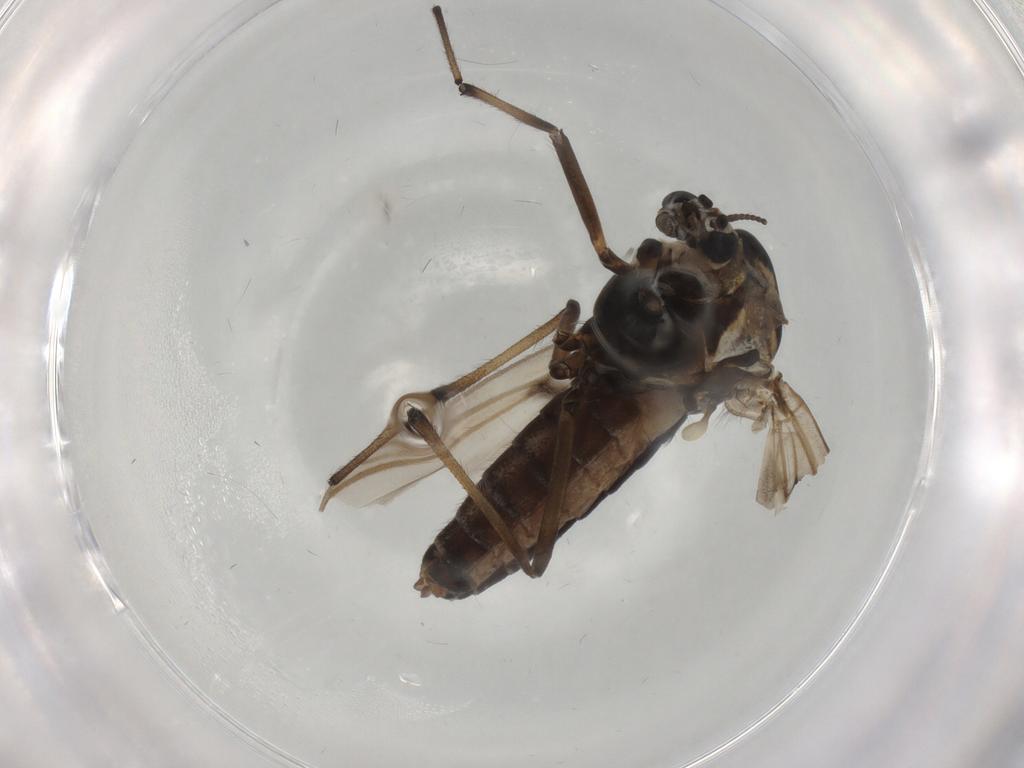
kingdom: Animalia
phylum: Arthropoda
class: Insecta
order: Diptera
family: Chironomidae
